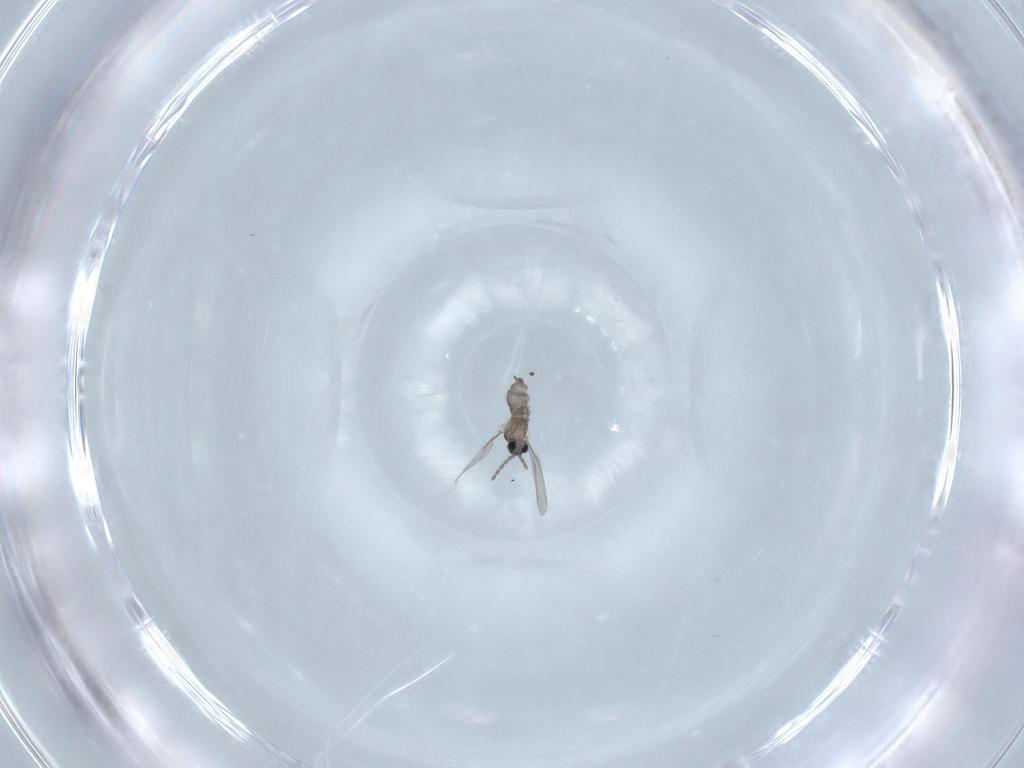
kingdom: Animalia
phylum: Arthropoda
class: Insecta
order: Diptera
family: Cecidomyiidae
